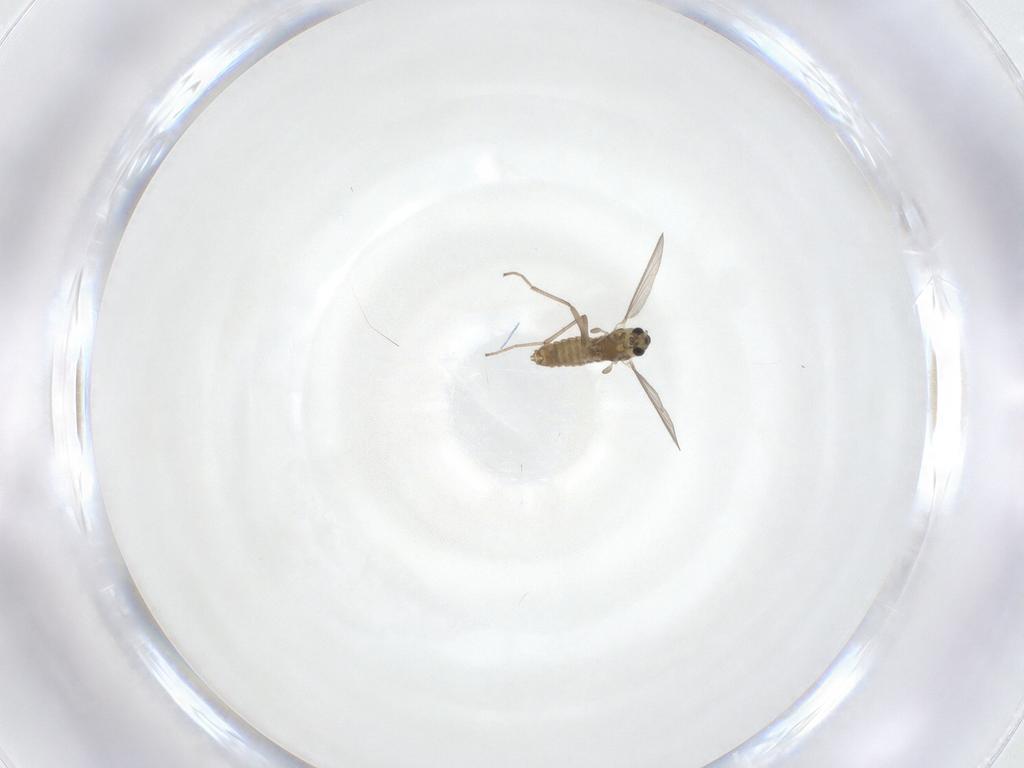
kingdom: Animalia
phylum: Arthropoda
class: Insecta
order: Diptera
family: Chironomidae
